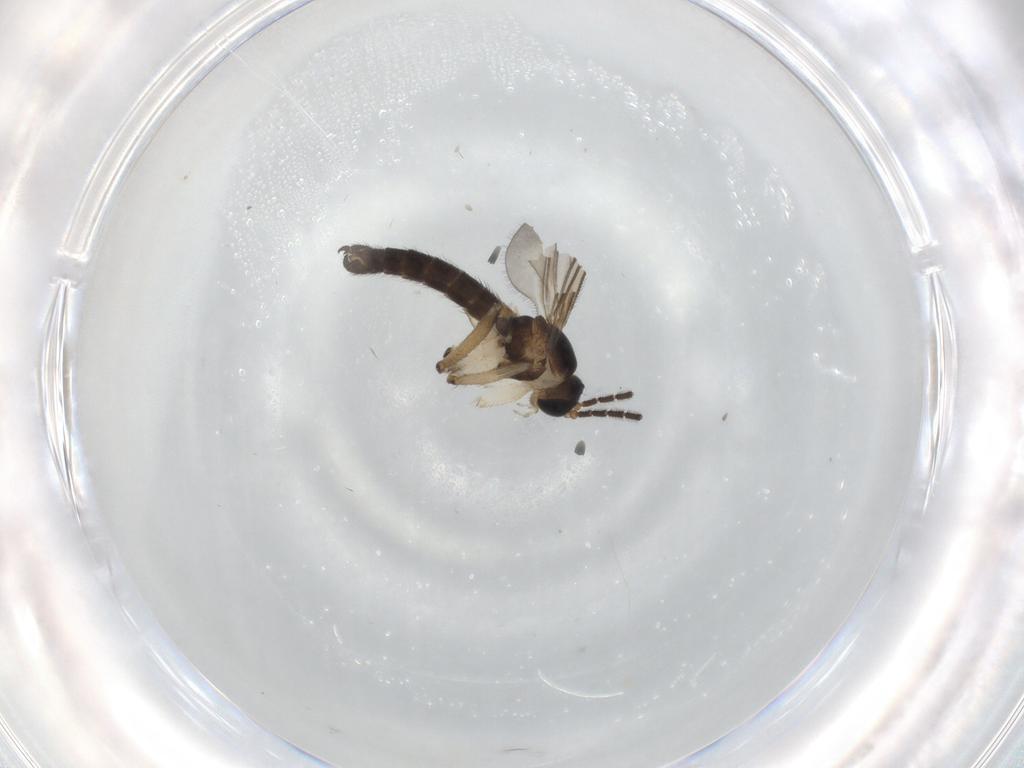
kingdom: Animalia
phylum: Arthropoda
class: Insecta
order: Diptera
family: Sciaridae
